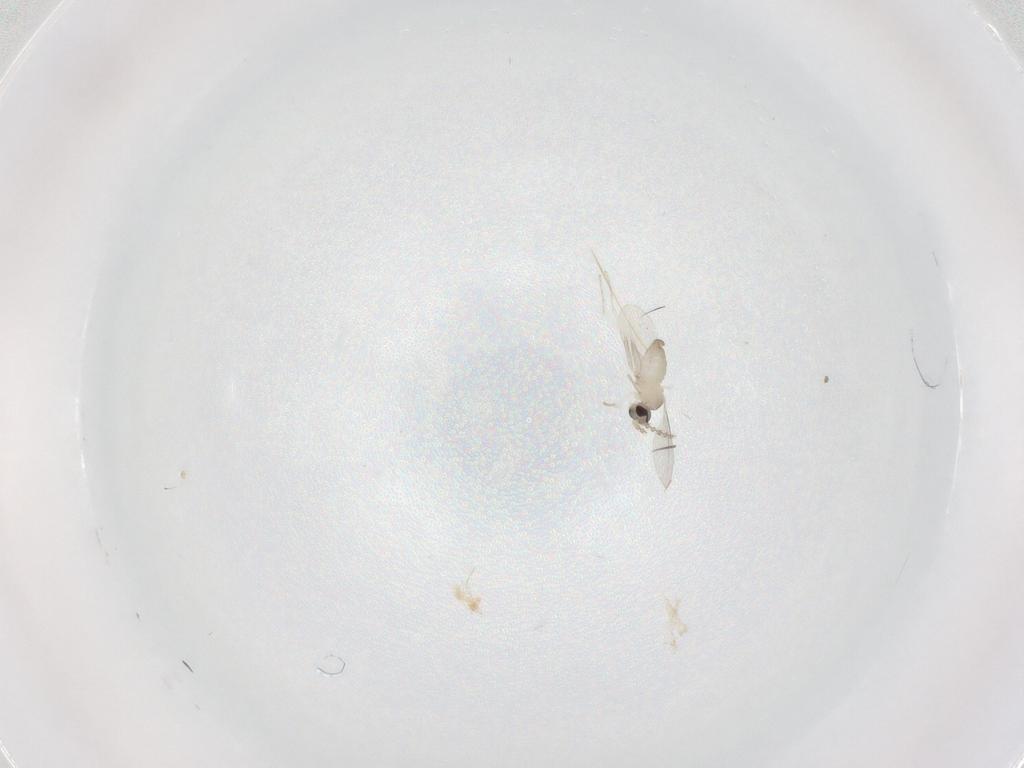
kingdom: Animalia
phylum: Arthropoda
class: Insecta
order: Diptera
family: Cecidomyiidae
